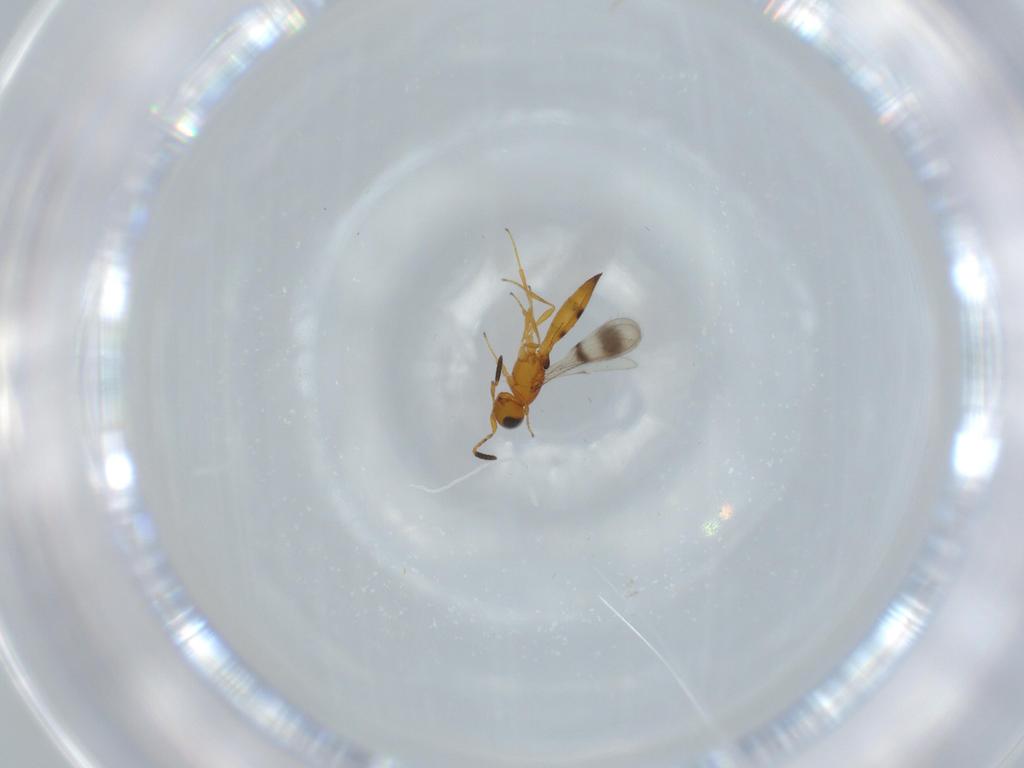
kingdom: Animalia
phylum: Arthropoda
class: Insecta
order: Hymenoptera
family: Scelionidae
